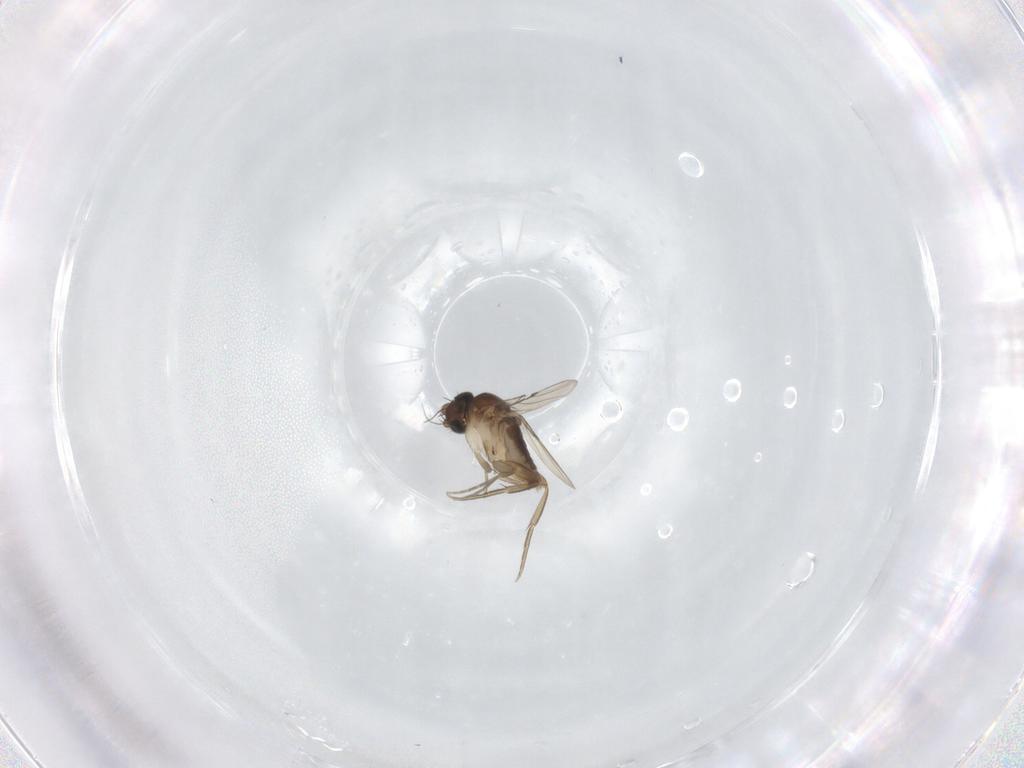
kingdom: Animalia
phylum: Arthropoda
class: Insecta
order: Diptera
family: Phoridae
